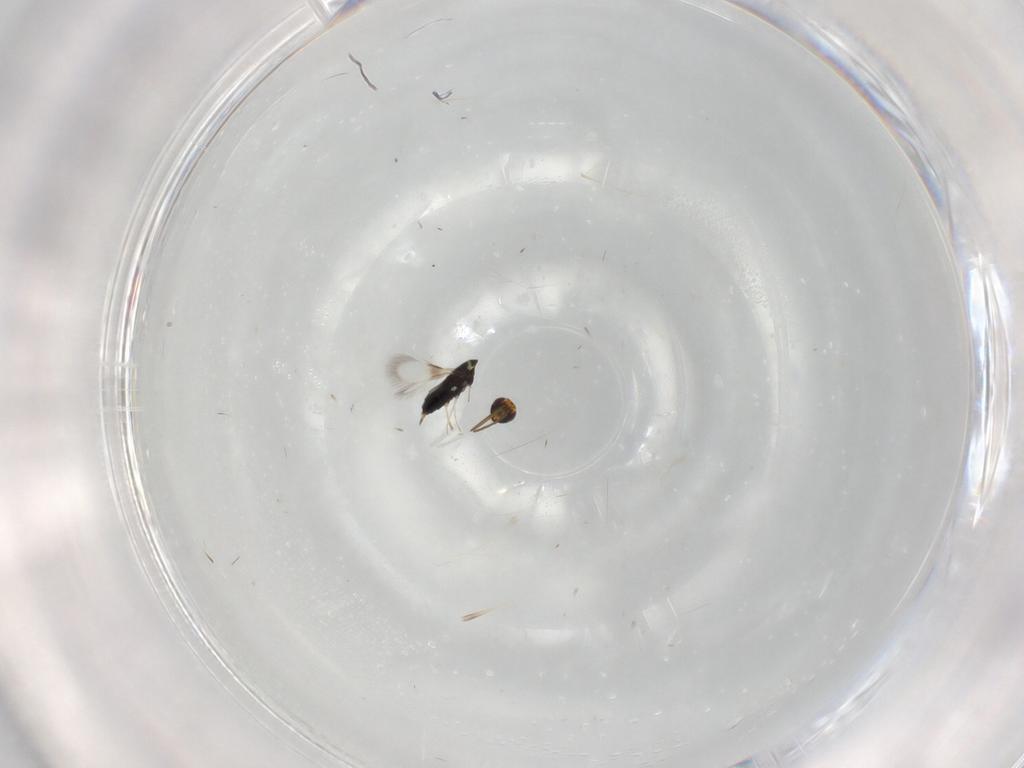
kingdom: Animalia
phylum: Arthropoda
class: Insecta
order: Hymenoptera
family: Signiphoridae
